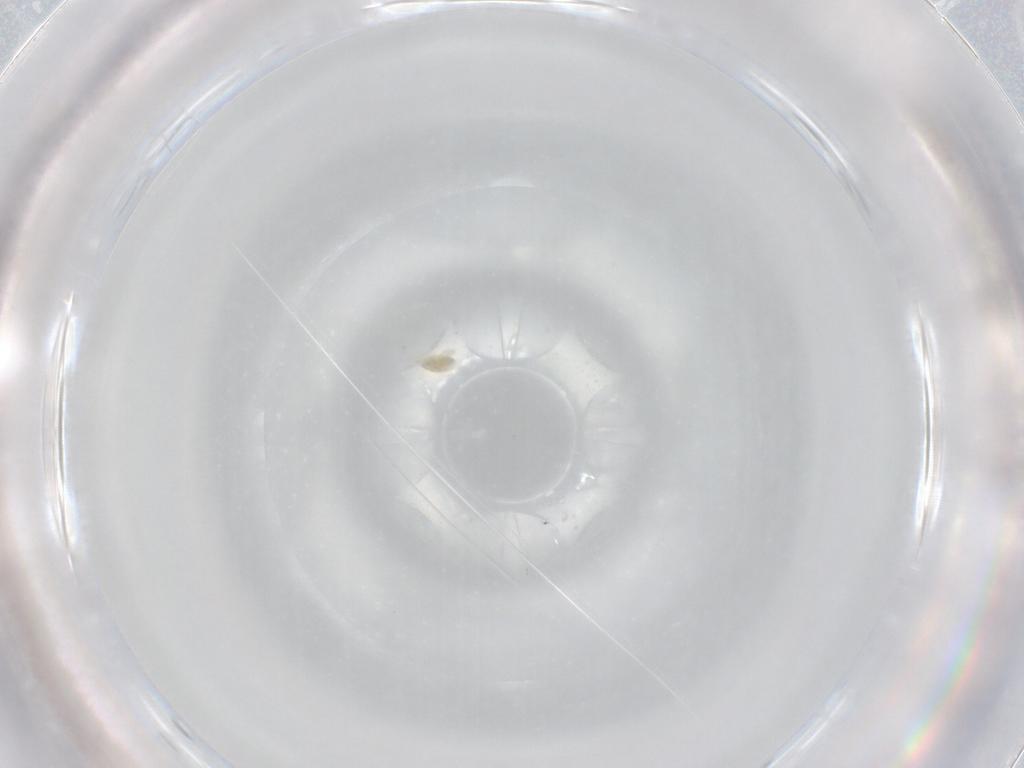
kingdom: Animalia
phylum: Arthropoda
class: Arachnida
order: Trombidiformes
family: Eupodidae
